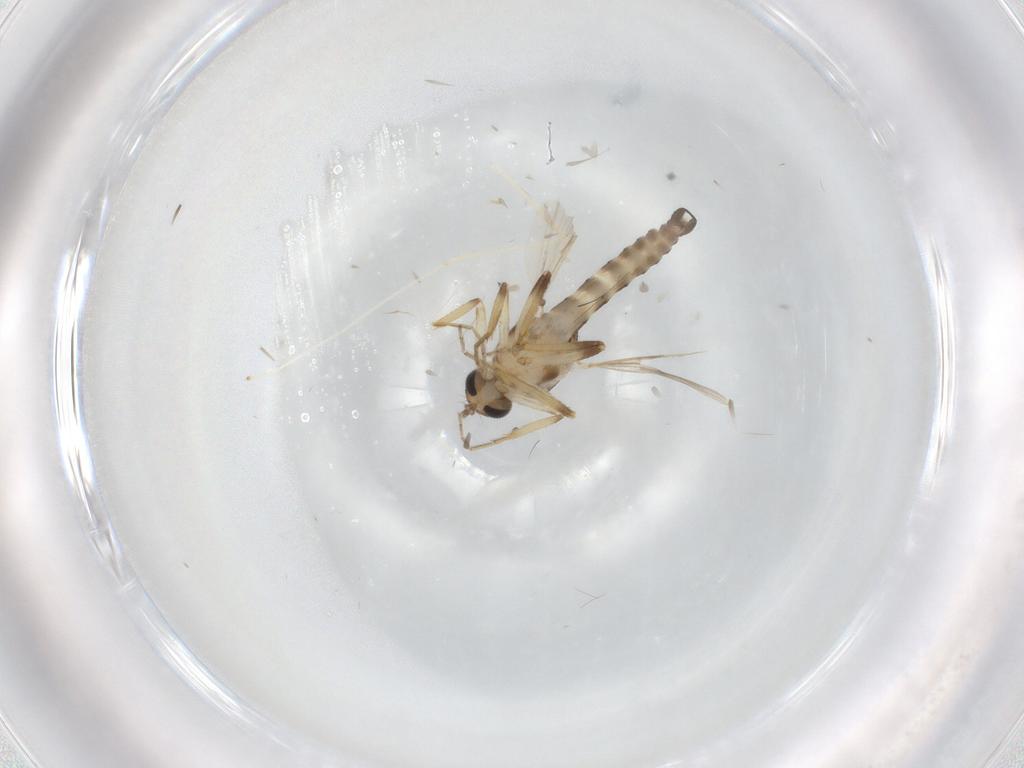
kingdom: Animalia
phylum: Arthropoda
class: Insecta
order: Diptera
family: Ceratopogonidae
